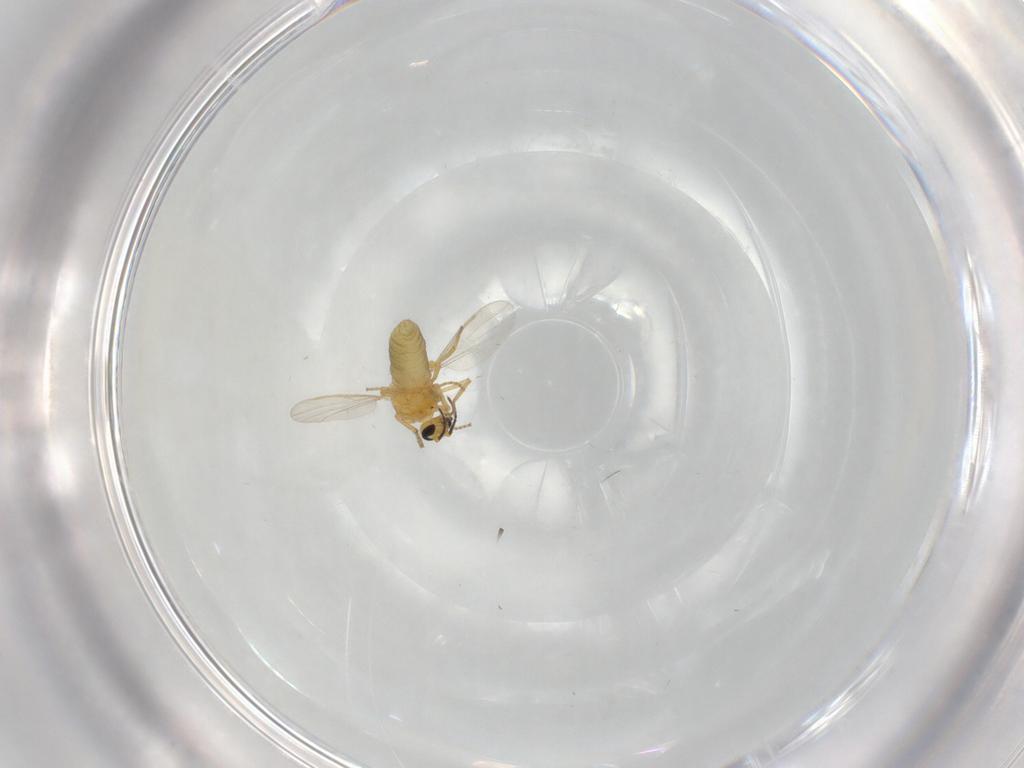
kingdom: Animalia
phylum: Arthropoda
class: Insecta
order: Diptera
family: Ceratopogonidae
